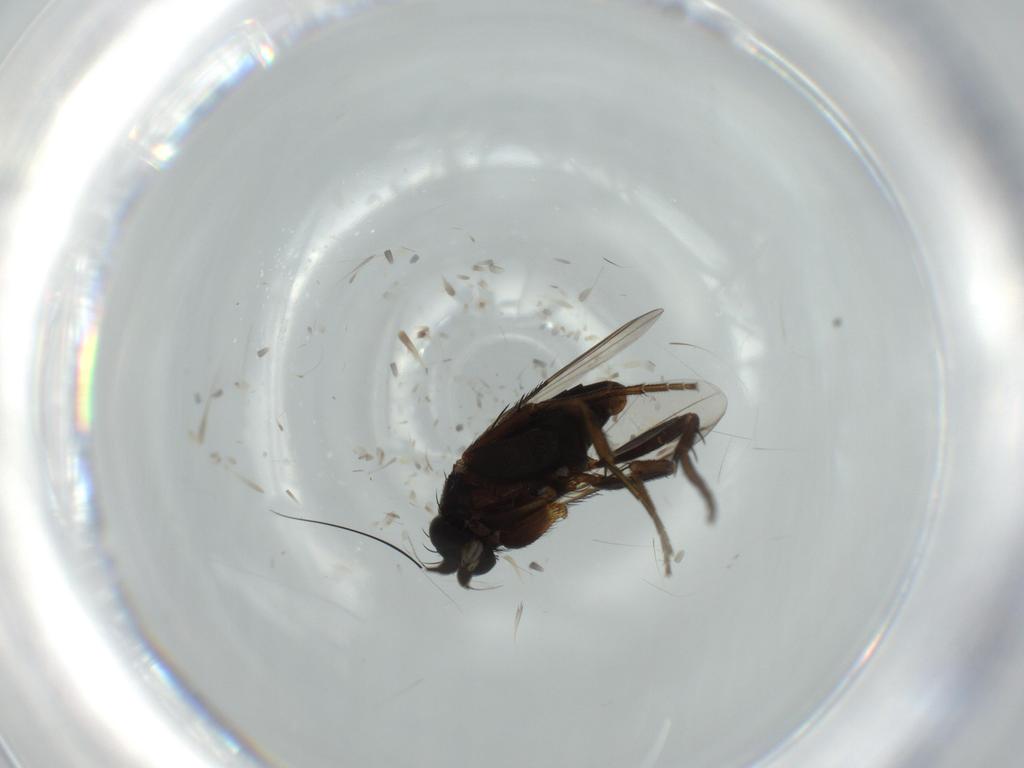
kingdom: Animalia
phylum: Arthropoda
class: Insecta
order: Diptera
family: Phoridae
